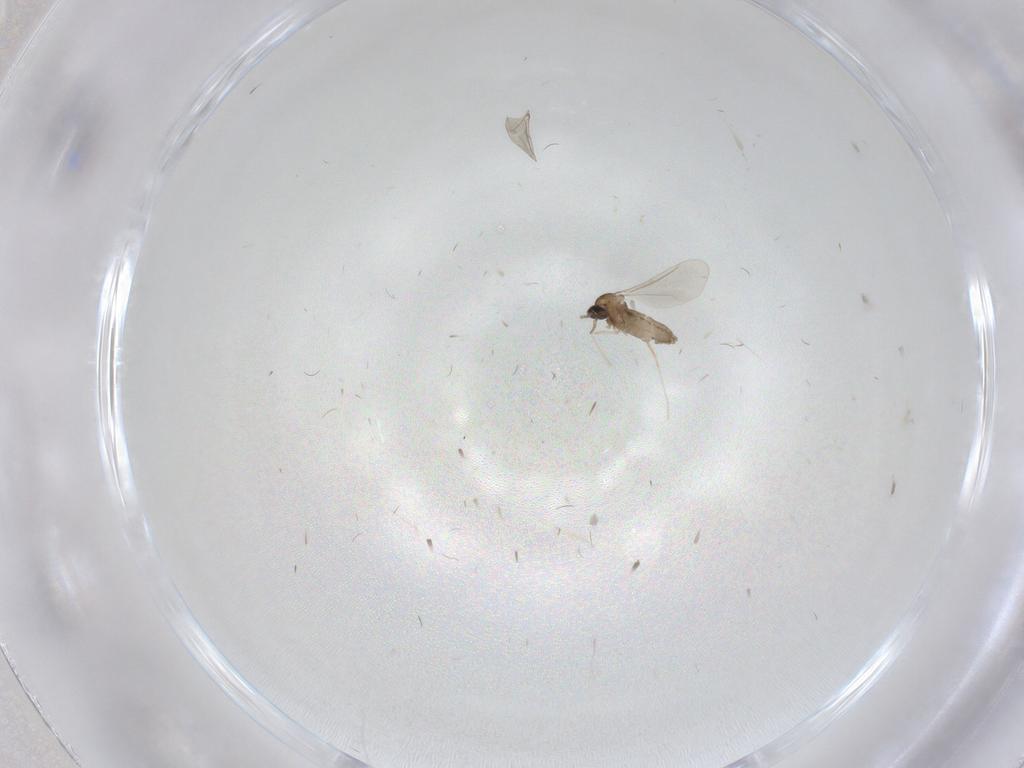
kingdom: Animalia
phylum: Arthropoda
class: Insecta
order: Diptera
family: Cecidomyiidae
